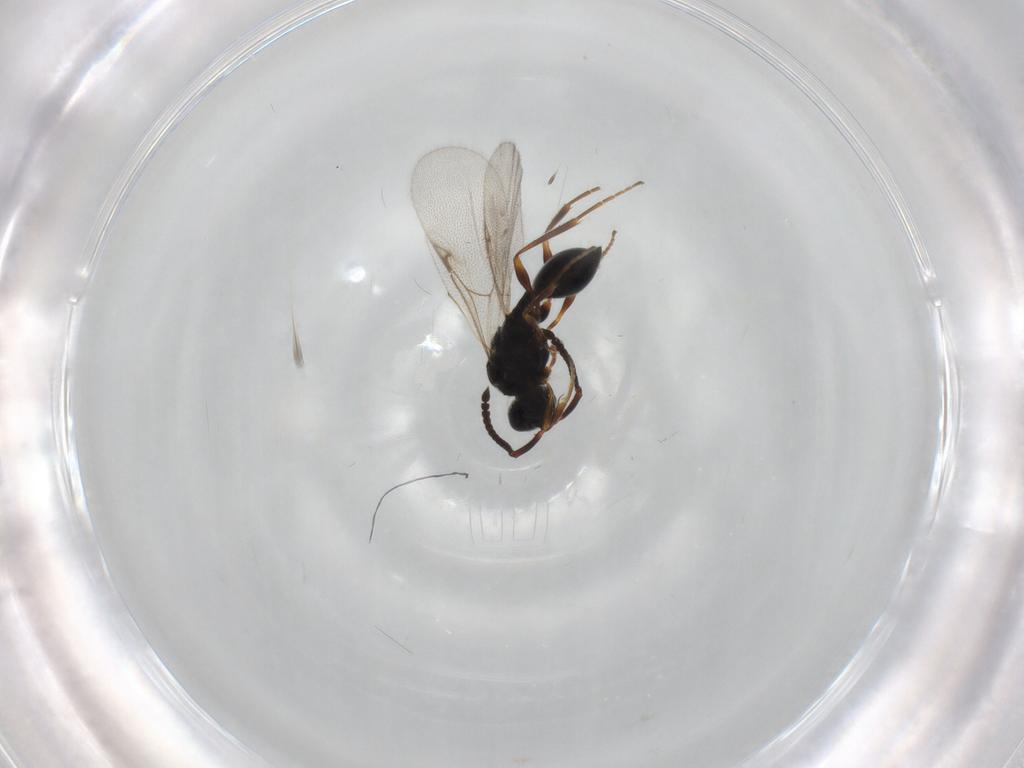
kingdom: Animalia
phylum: Arthropoda
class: Insecta
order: Hymenoptera
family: Diapriidae
